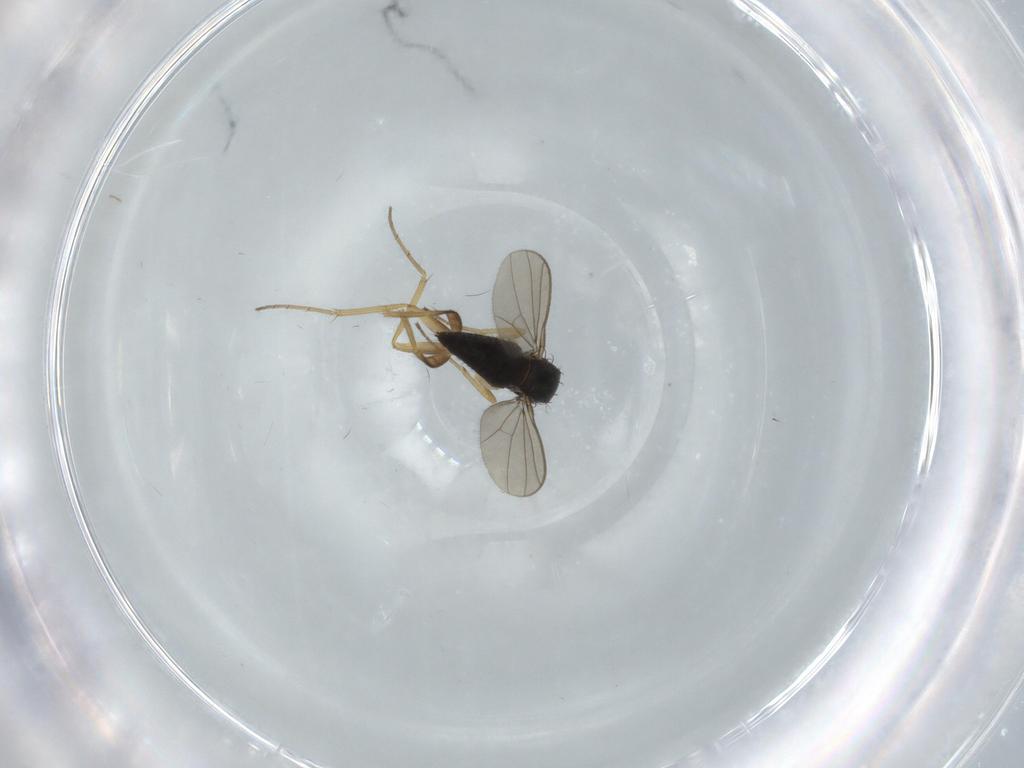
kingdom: Animalia
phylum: Arthropoda
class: Insecta
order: Diptera
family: Dolichopodidae
